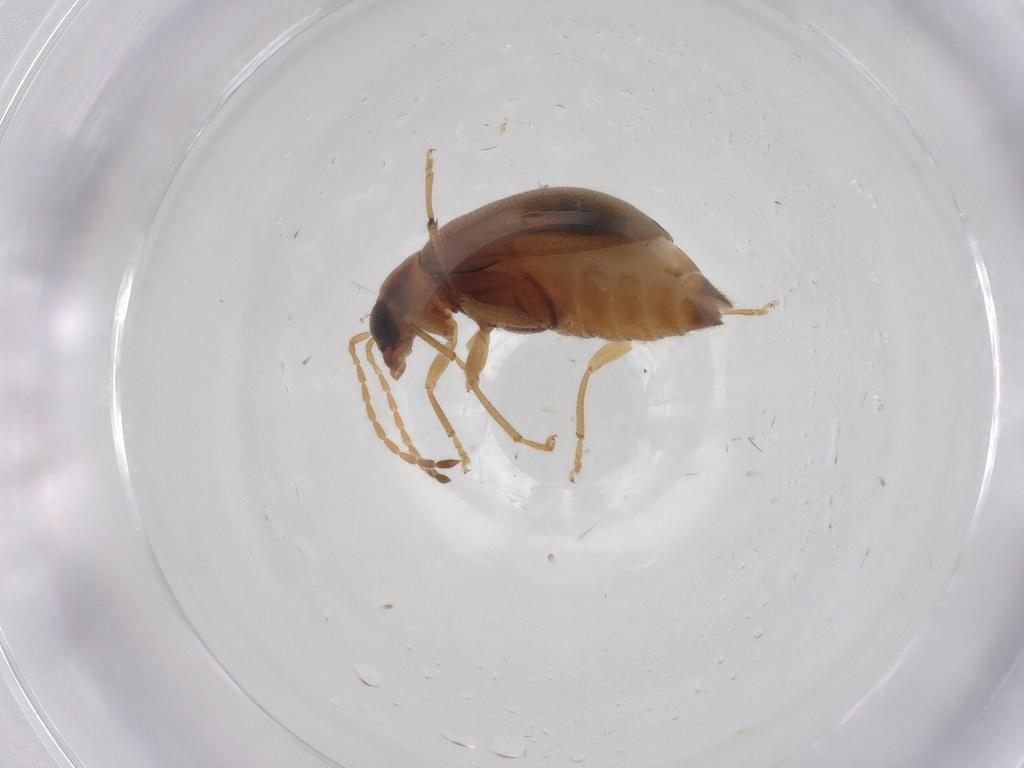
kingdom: Animalia
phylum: Arthropoda
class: Insecta
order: Coleoptera
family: Chrysomelidae
